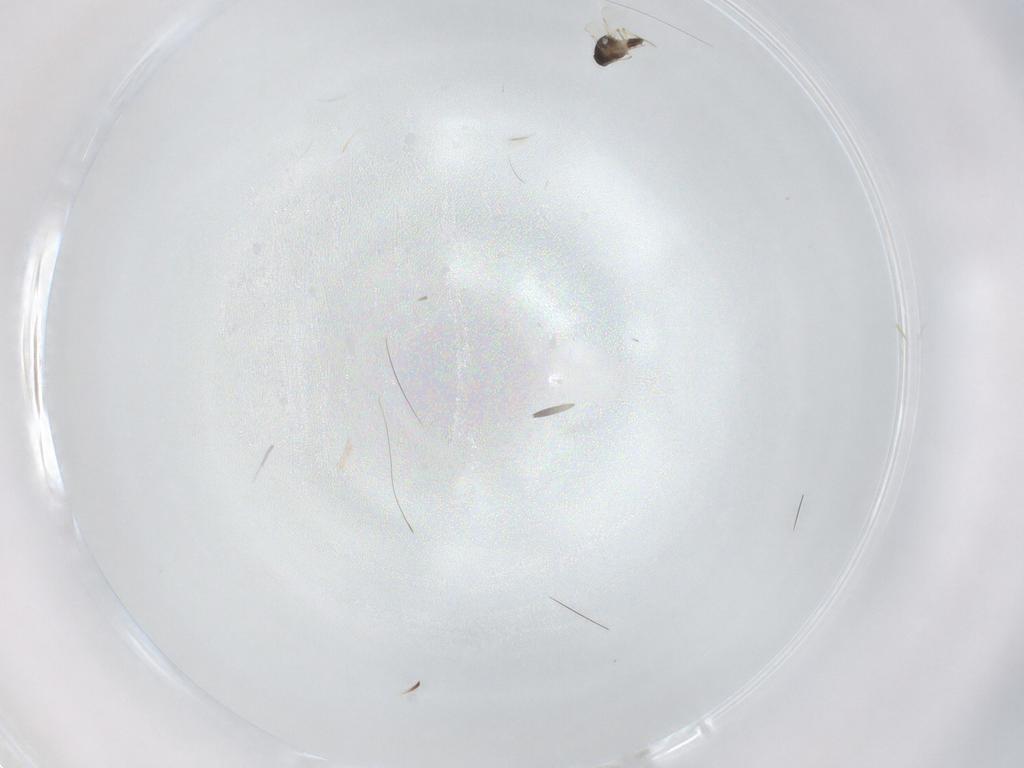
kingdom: Animalia
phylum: Arthropoda
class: Insecta
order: Diptera
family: Ceratopogonidae
